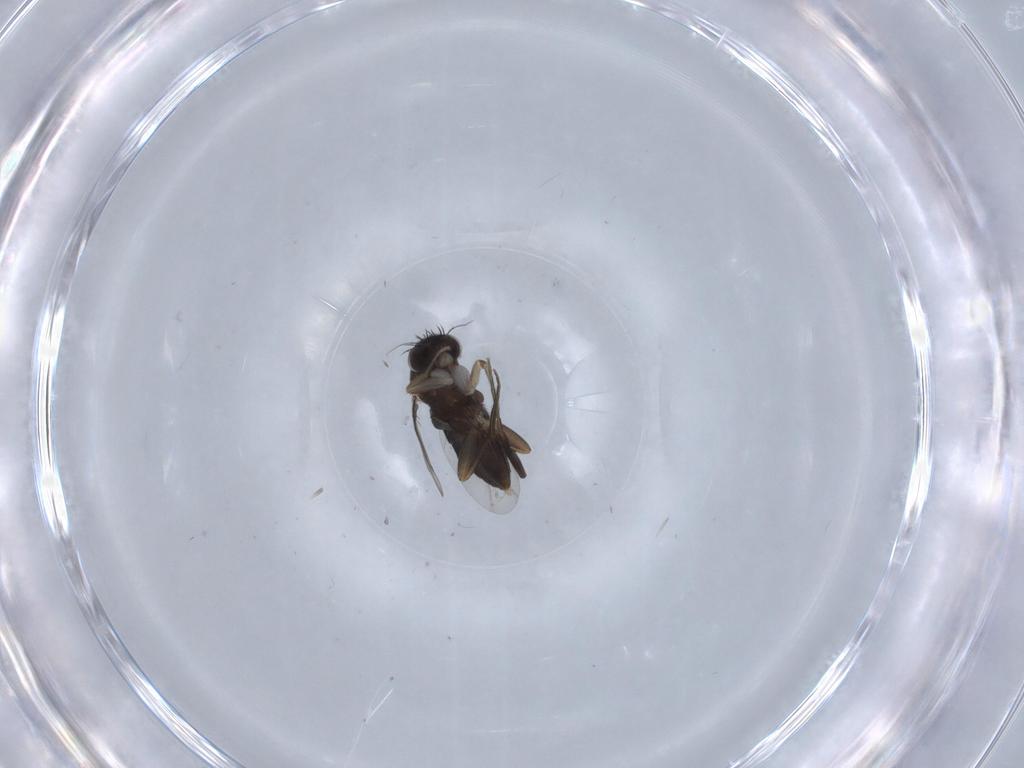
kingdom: Animalia
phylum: Arthropoda
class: Insecta
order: Diptera
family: Phoridae
